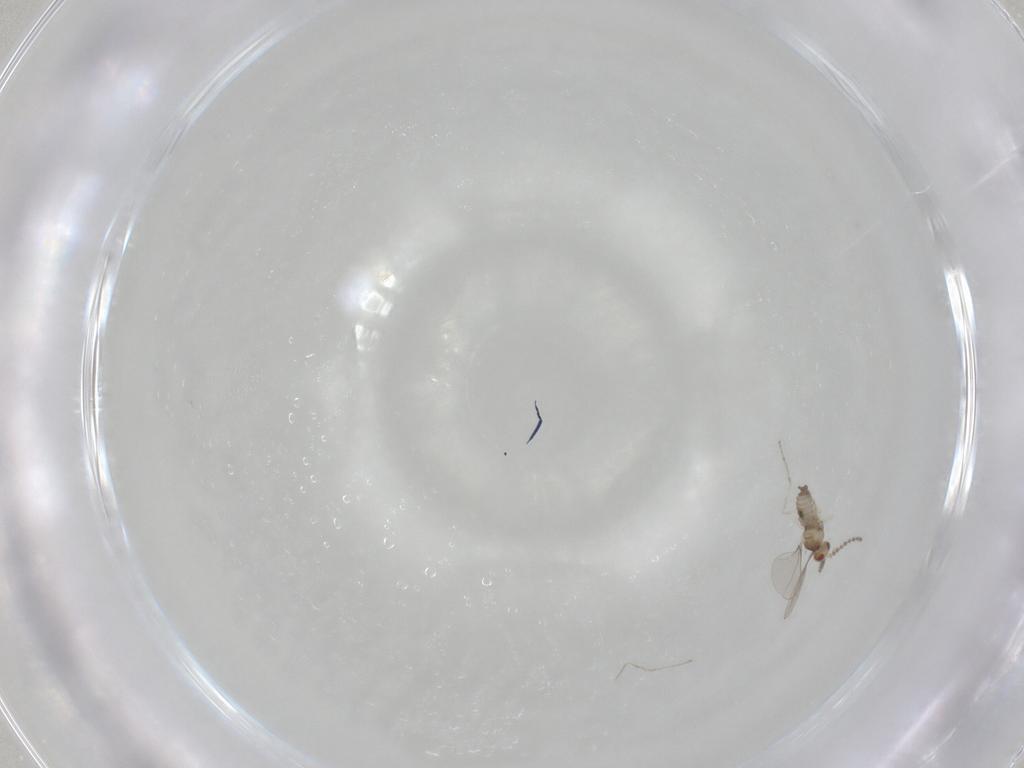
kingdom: Animalia
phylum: Arthropoda
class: Insecta
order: Diptera
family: Cecidomyiidae
